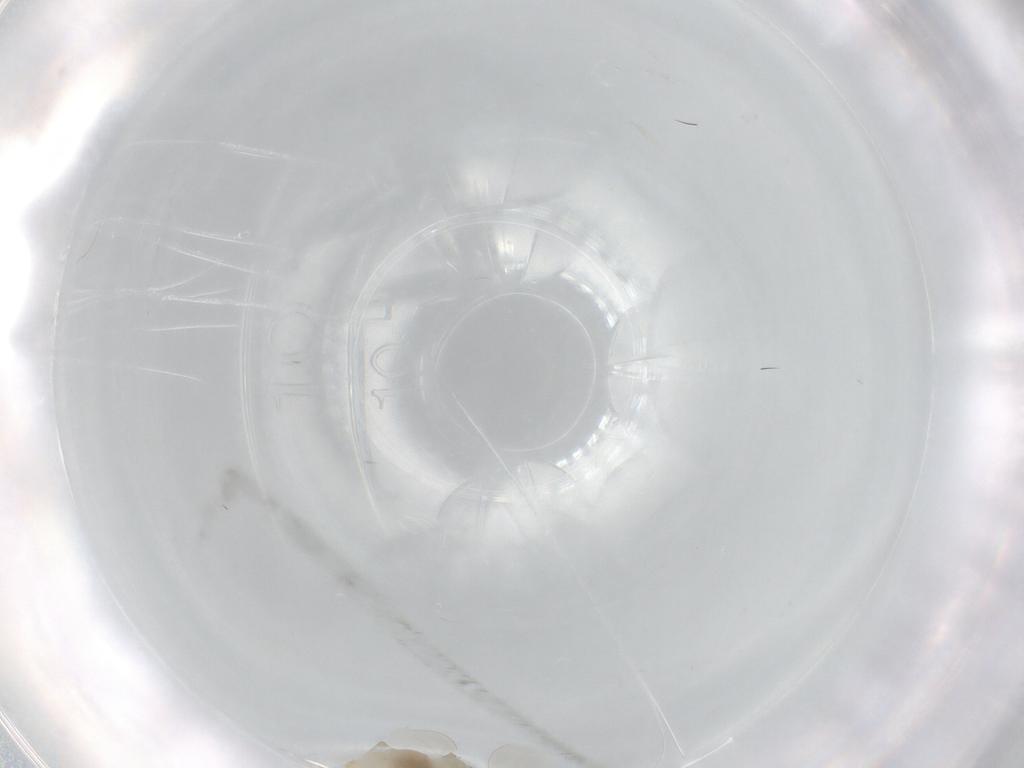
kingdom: Animalia
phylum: Arthropoda
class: Insecta
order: Diptera
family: Cecidomyiidae
